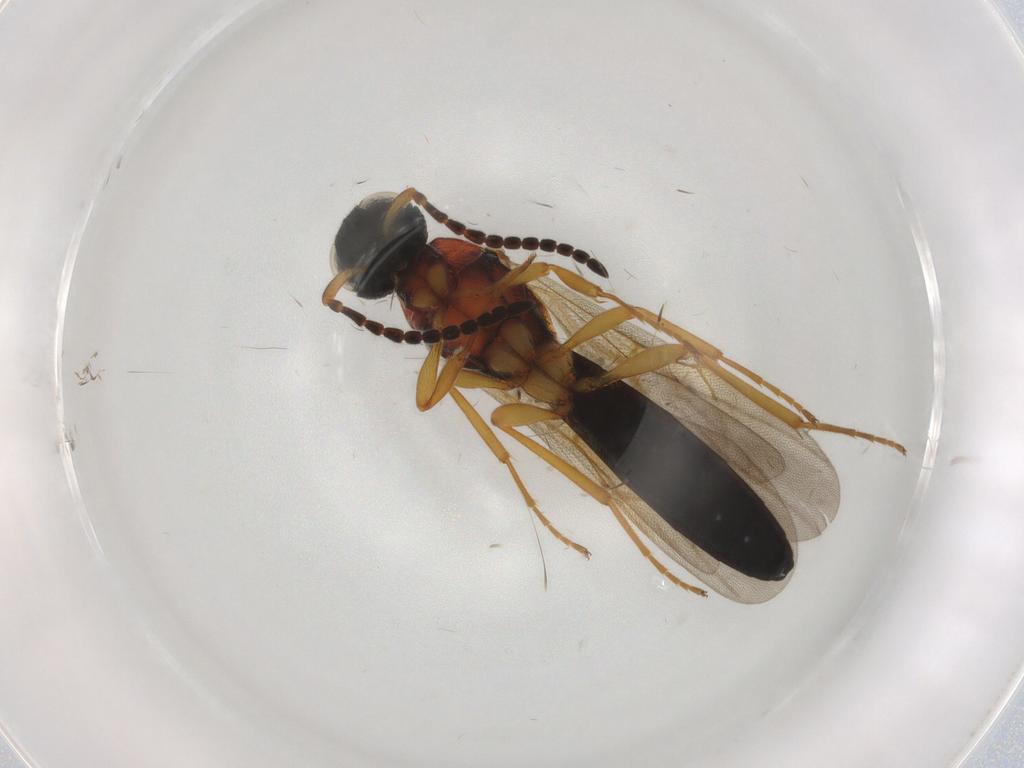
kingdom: Animalia
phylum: Arthropoda
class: Insecta
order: Hymenoptera
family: Scelionidae
